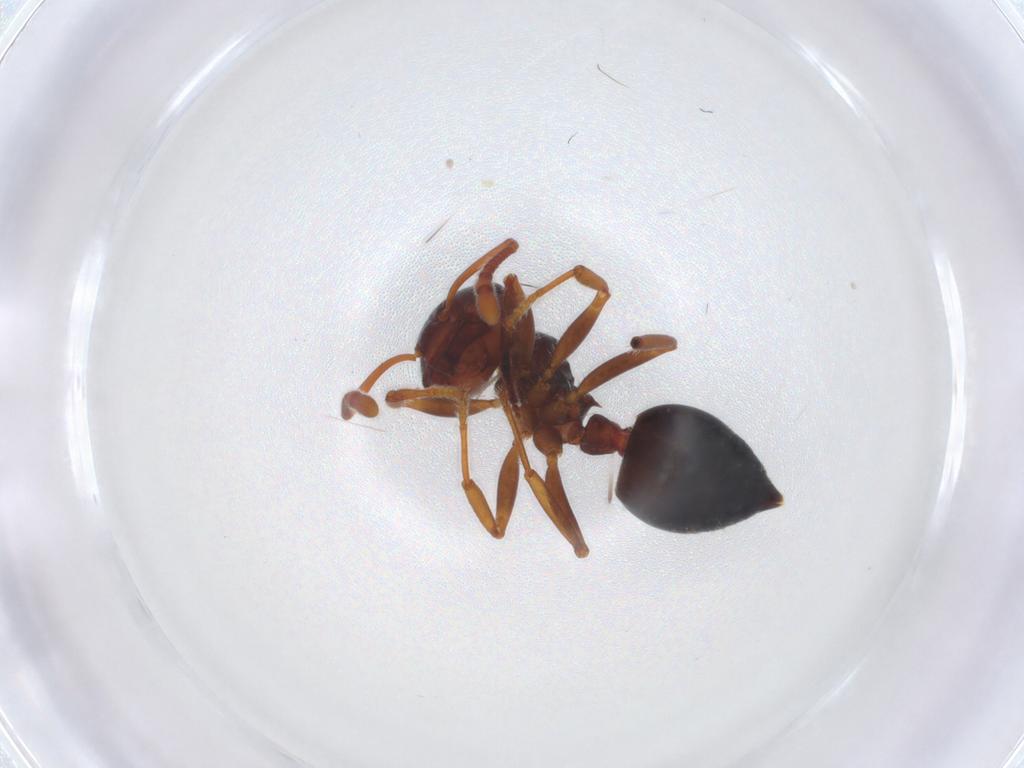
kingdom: Animalia
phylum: Arthropoda
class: Insecta
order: Hymenoptera
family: Formicidae
